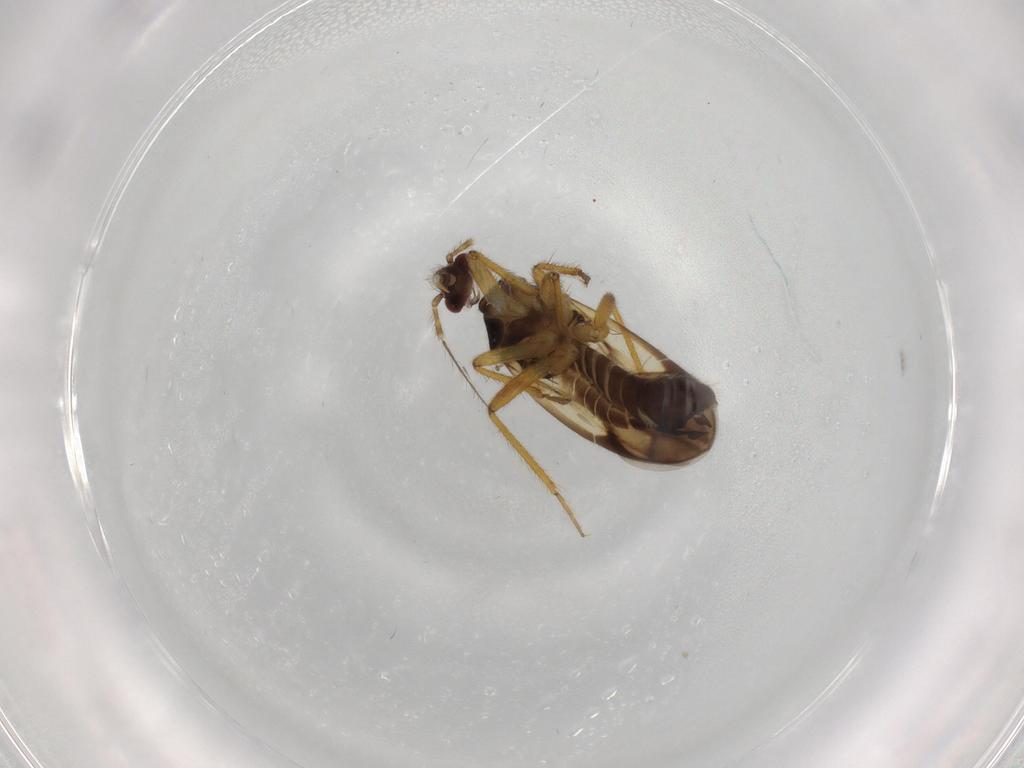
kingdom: Animalia
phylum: Arthropoda
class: Insecta
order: Hemiptera
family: Ceratocombidae
